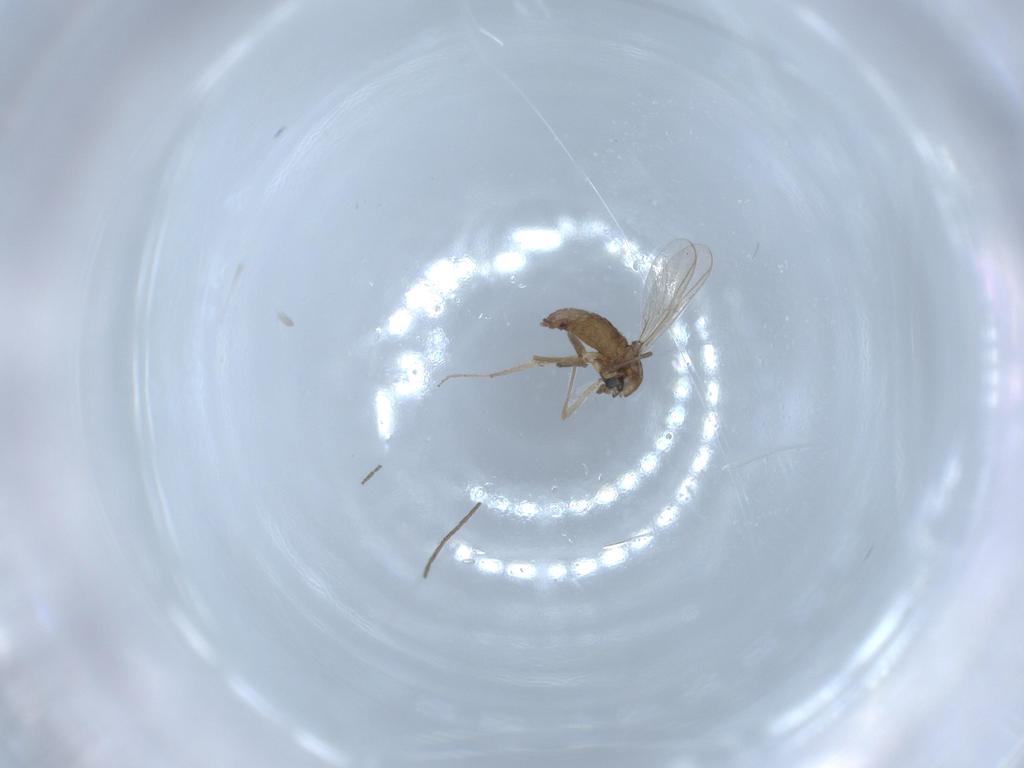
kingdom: Animalia
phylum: Arthropoda
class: Insecta
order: Diptera
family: Chironomidae
